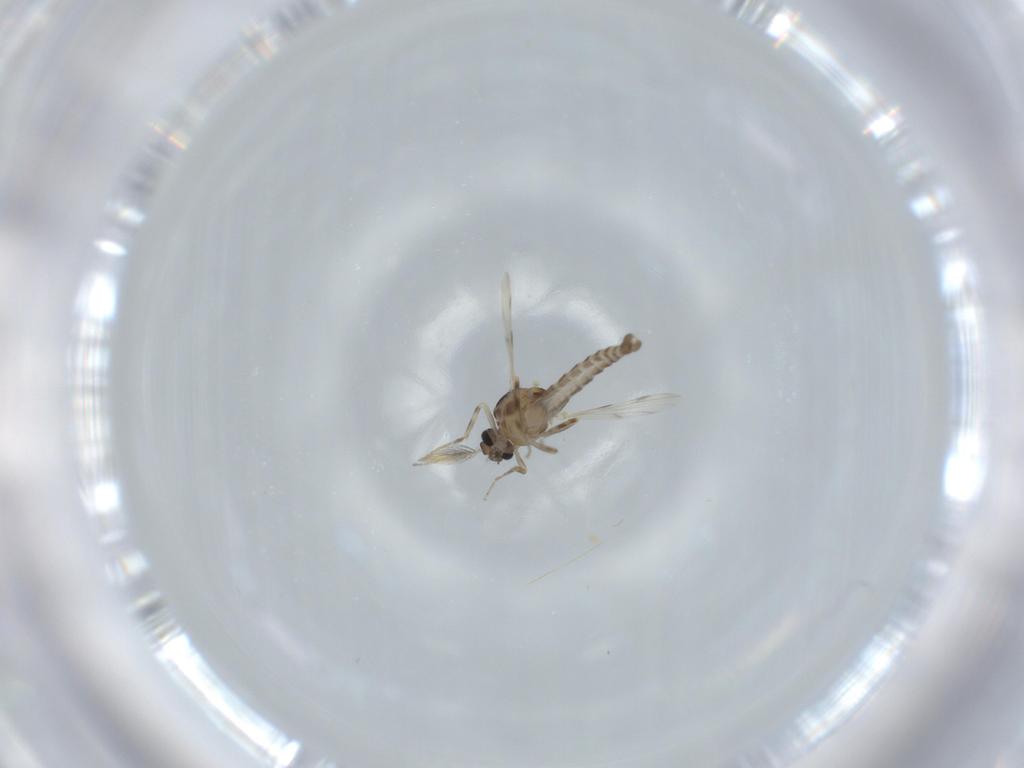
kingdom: Animalia
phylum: Arthropoda
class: Insecta
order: Diptera
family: Ceratopogonidae
